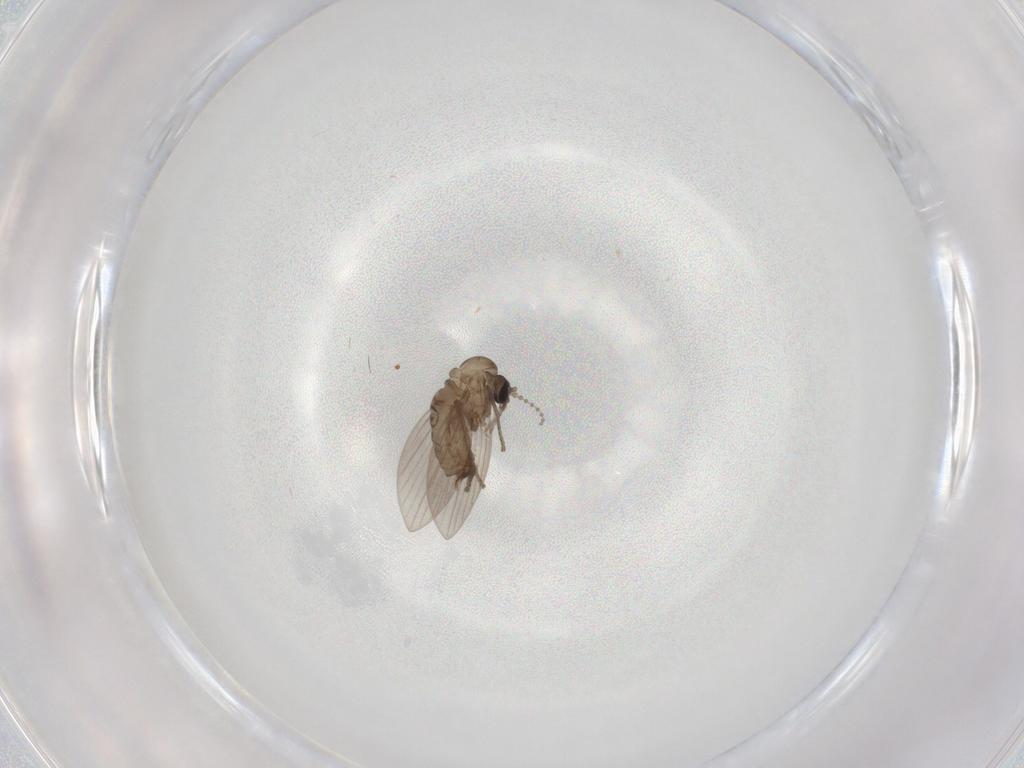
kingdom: Animalia
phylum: Arthropoda
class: Insecta
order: Diptera
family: Psychodidae
